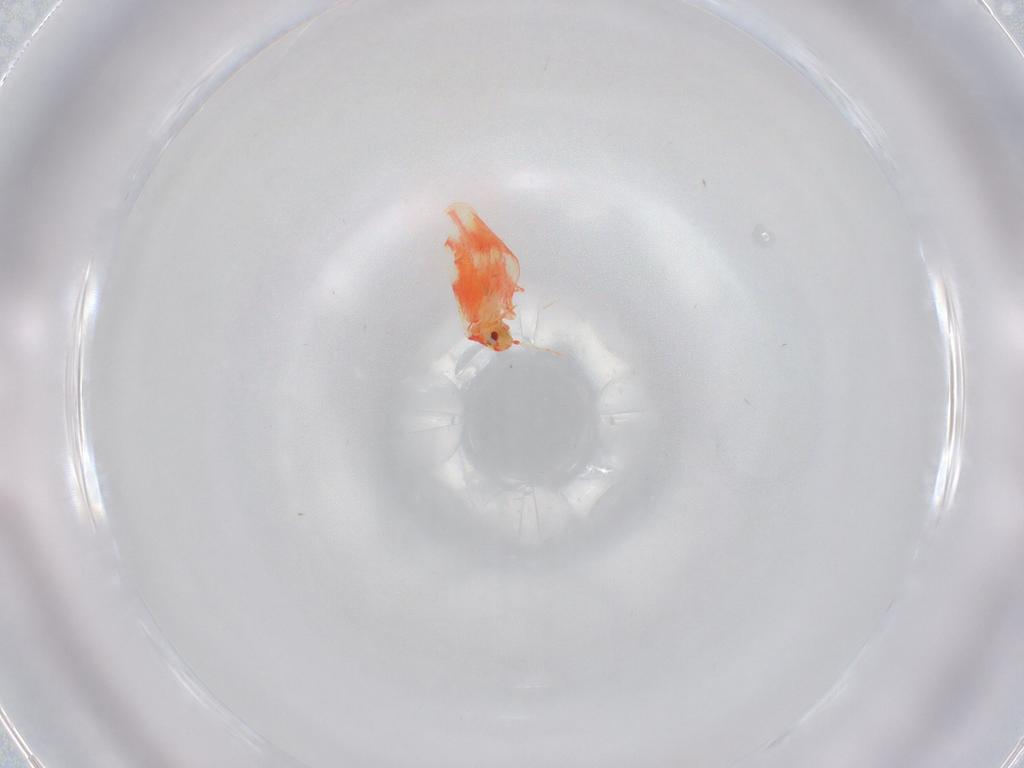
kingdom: Animalia
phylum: Arthropoda
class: Insecta
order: Hemiptera
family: Aleyrodidae
